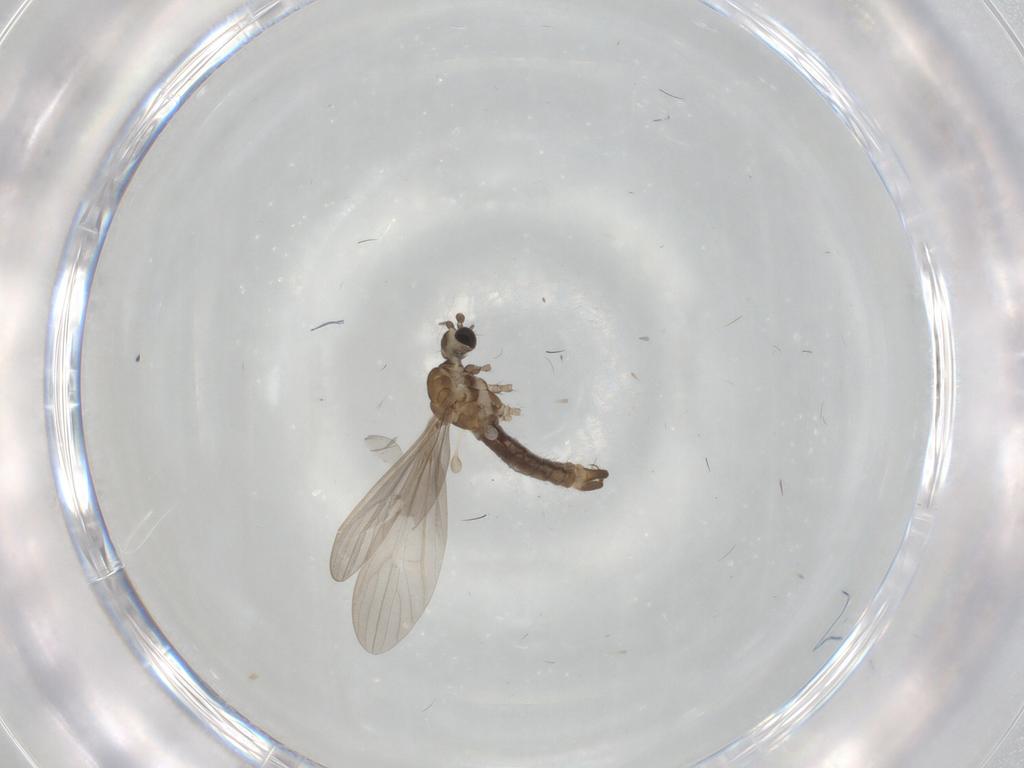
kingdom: Animalia
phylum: Arthropoda
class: Insecta
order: Diptera
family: Limoniidae
